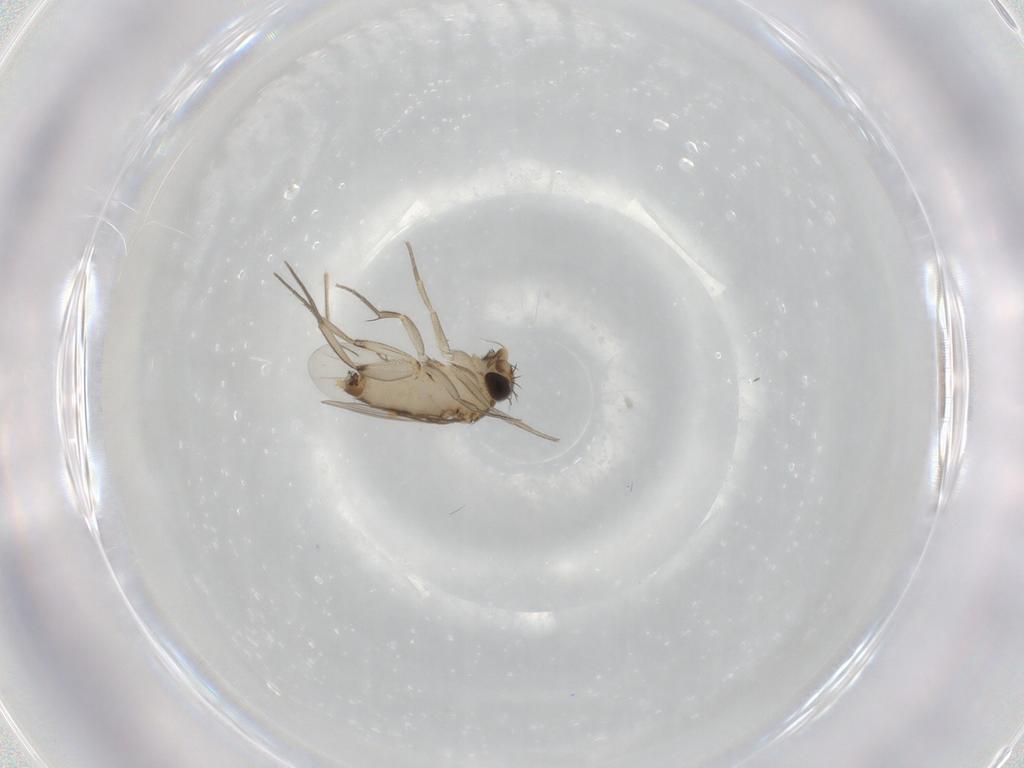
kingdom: Animalia
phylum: Arthropoda
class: Insecta
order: Diptera
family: Phoridae
